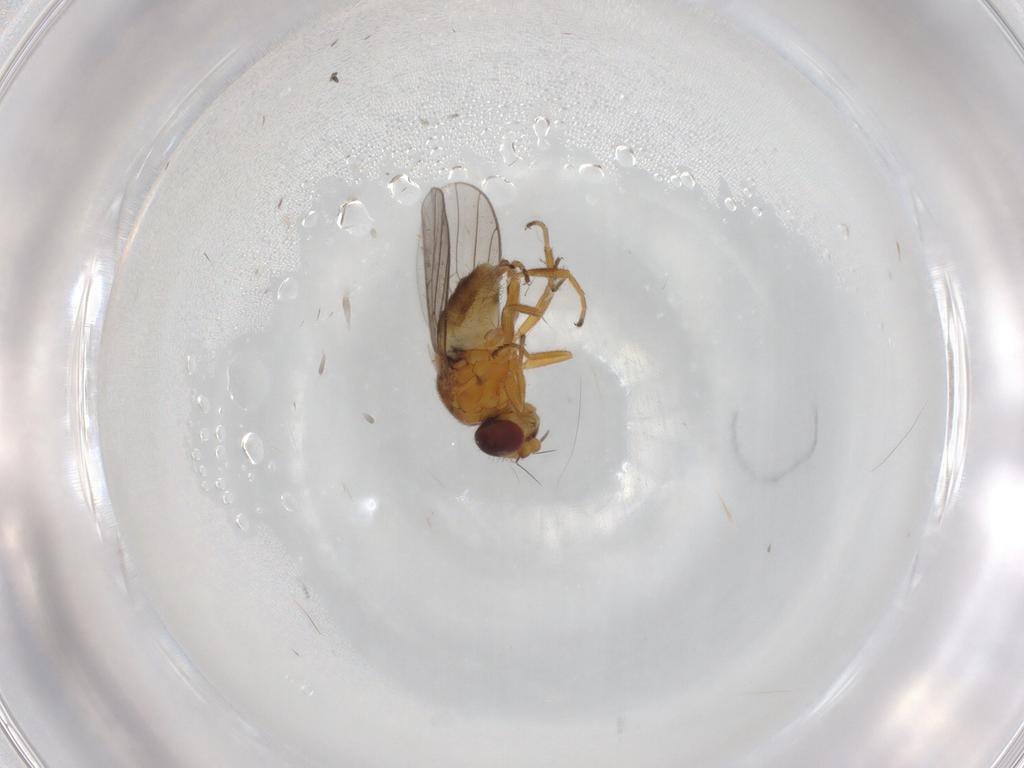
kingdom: Animalia
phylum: Arthropoda
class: Insecta
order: Diptera
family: Chloropidae
